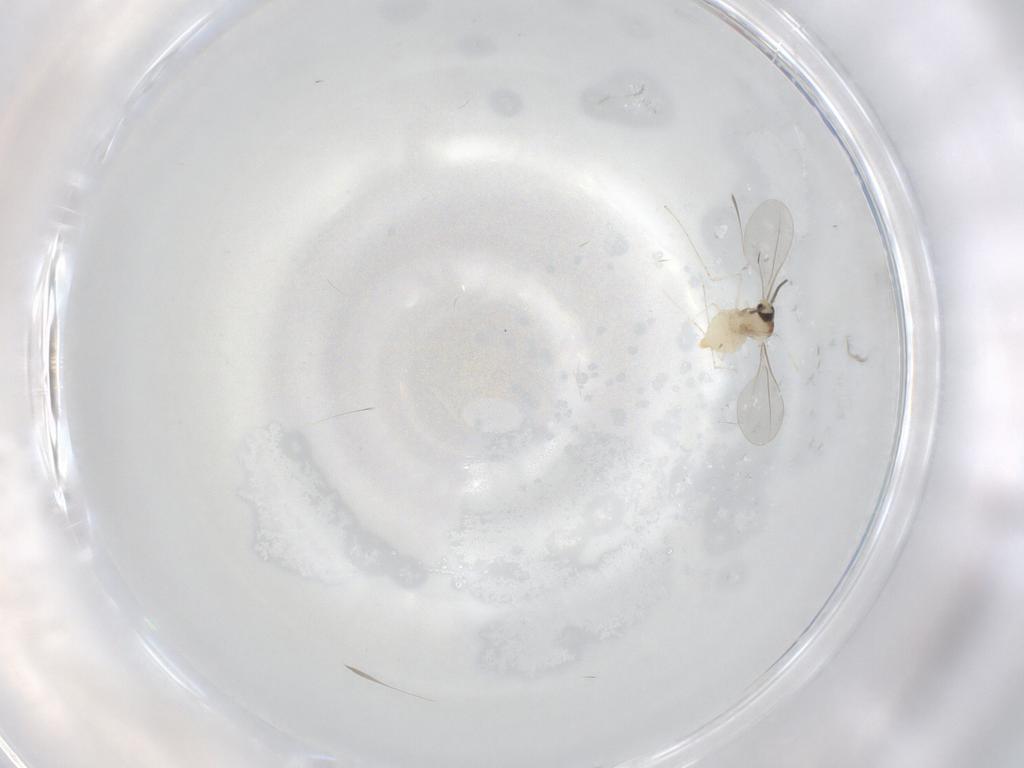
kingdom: Animalia
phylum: Arthropoda
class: Insecta
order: Diptera
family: Cecidomyiidae
